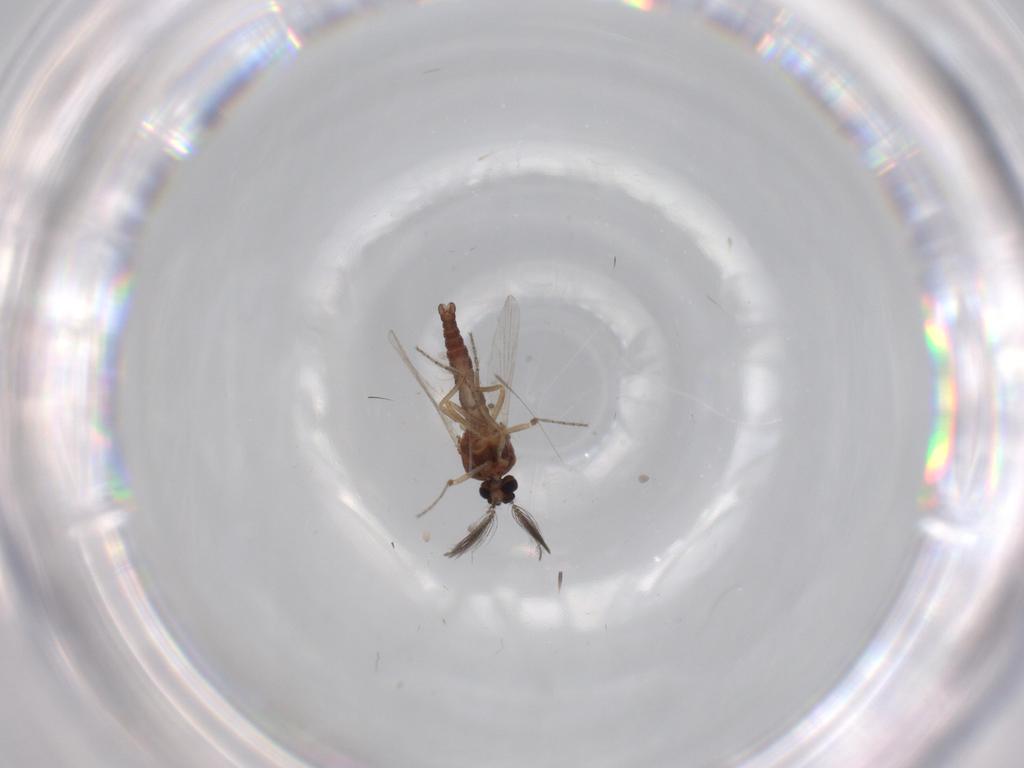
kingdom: Animalia
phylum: Arthropoda
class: Insecta
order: Diptera
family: Ceratopogonidae
